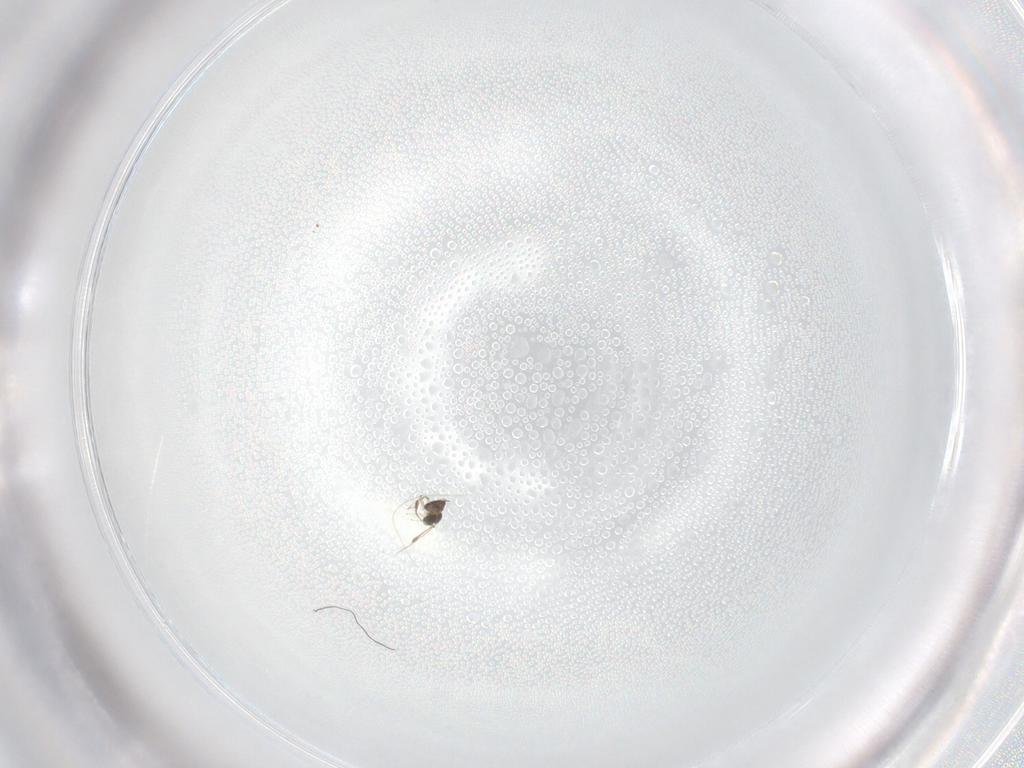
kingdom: Animalia
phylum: Arthropoda
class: Insecta
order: Hymenoptera
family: Mymaridae
